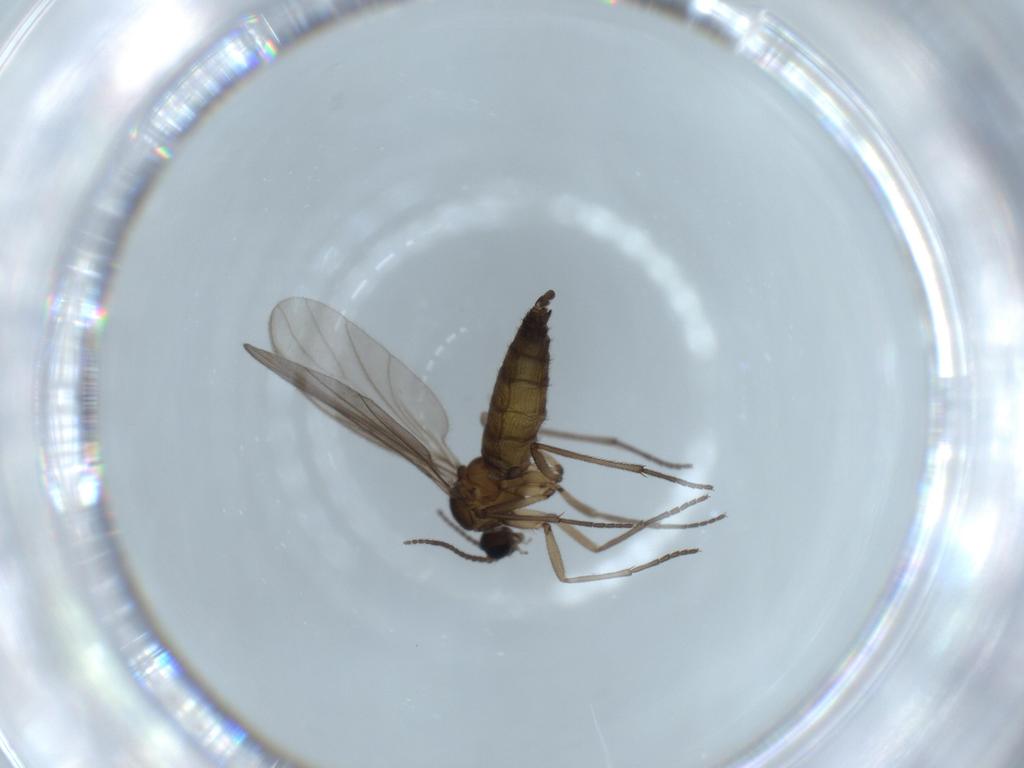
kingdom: Animalia
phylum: Arthropoda
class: Insecta
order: Diptera
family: Sciaridae
